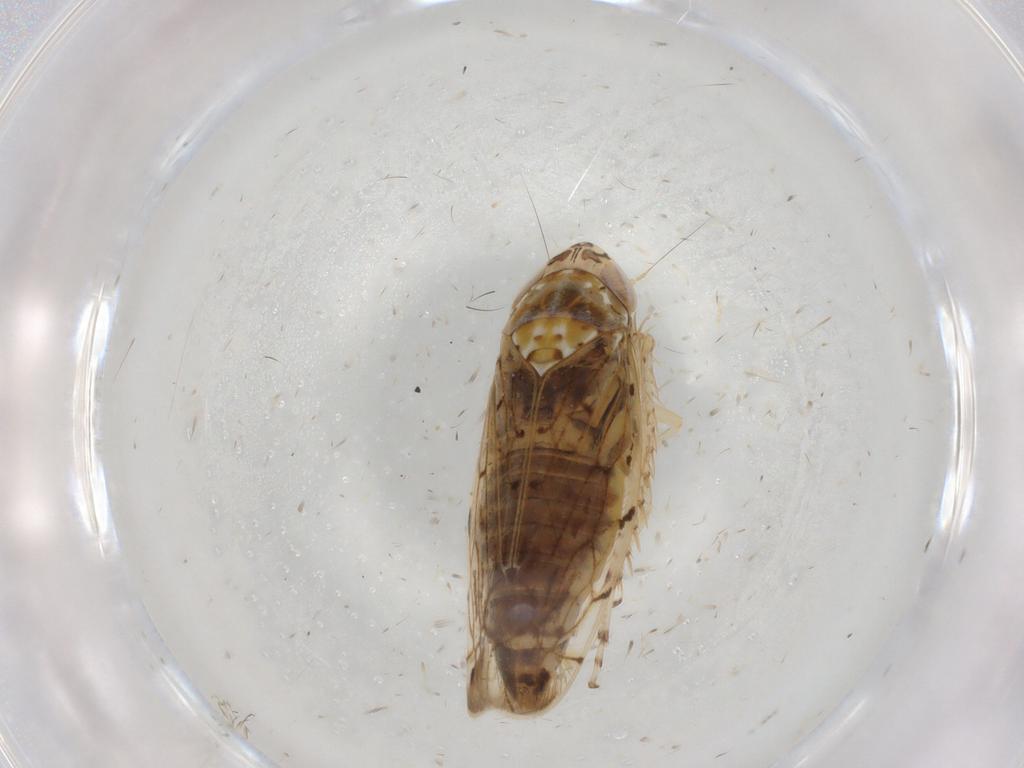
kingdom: Animalia
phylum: Arthropoda
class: Insecta
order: Hemiptera
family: Cicadellidae
